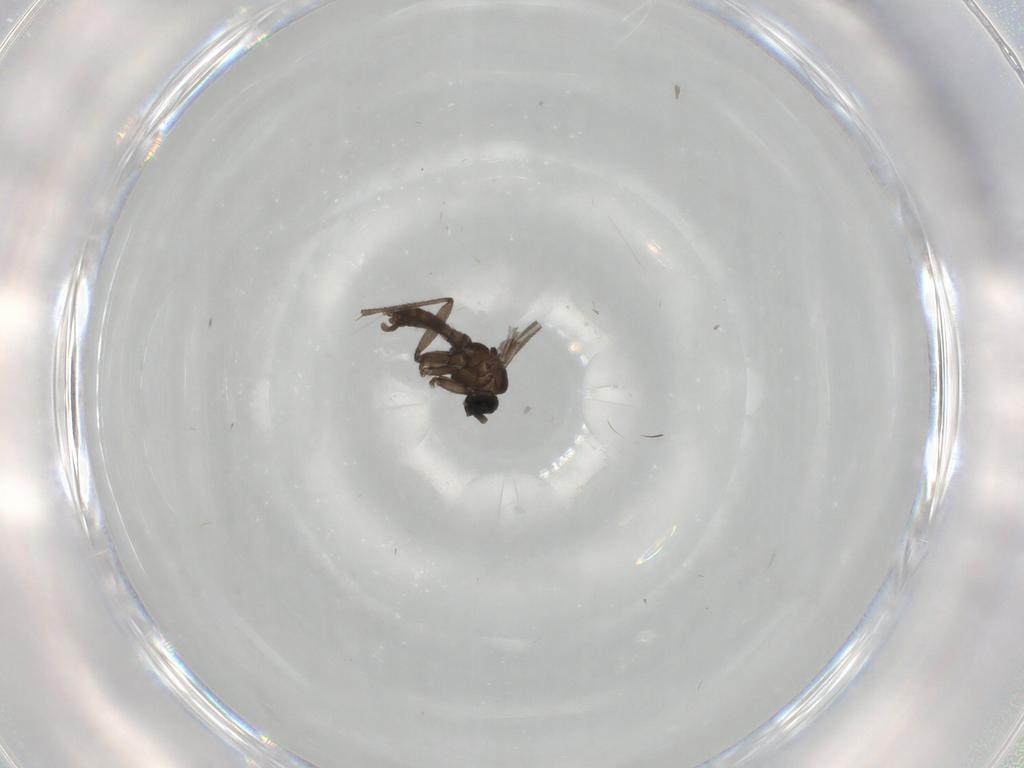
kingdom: Animalia
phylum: Arthropoda
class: Insecta
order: Diptera
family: Sciaridae
